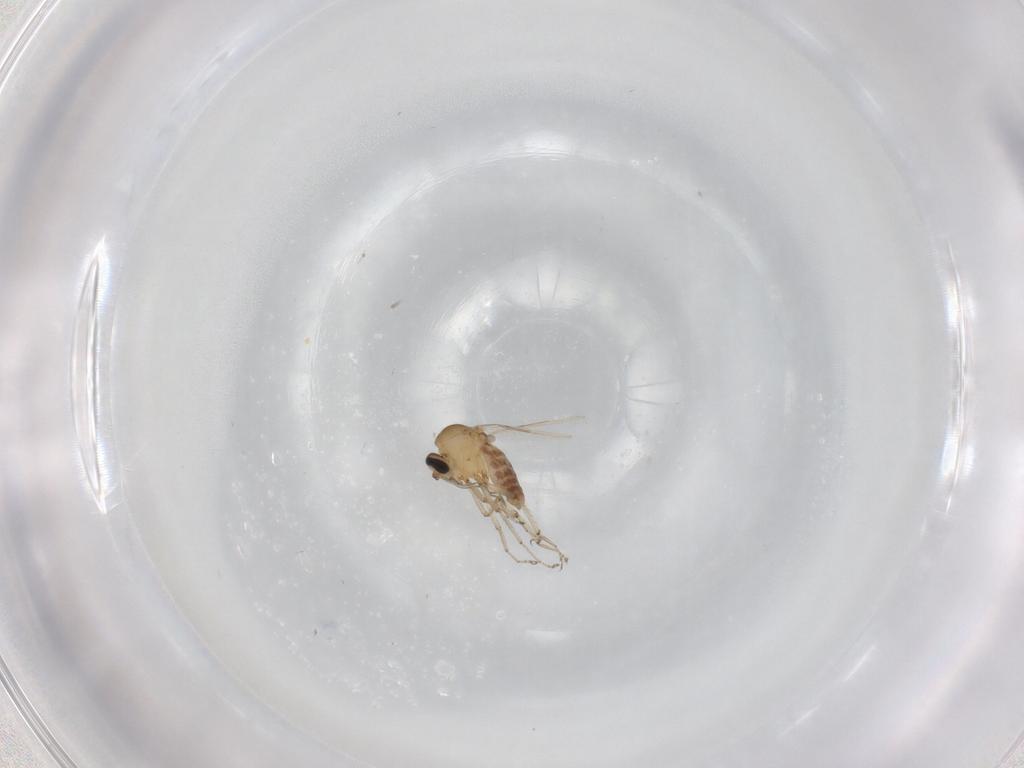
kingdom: Animalia
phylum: Arthropoda
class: Insecta
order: Diptera
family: Ceratopogonidae
